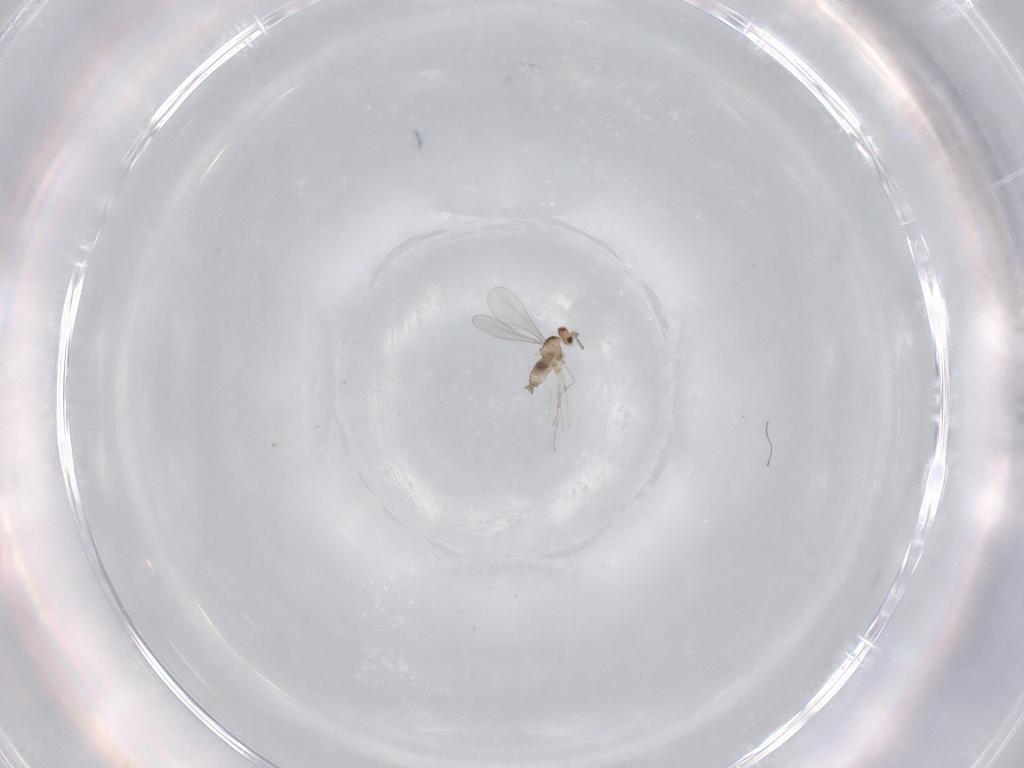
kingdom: Animalia
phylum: Arthropoda
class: Insecta
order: Diptera
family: Cecidomyiidae
